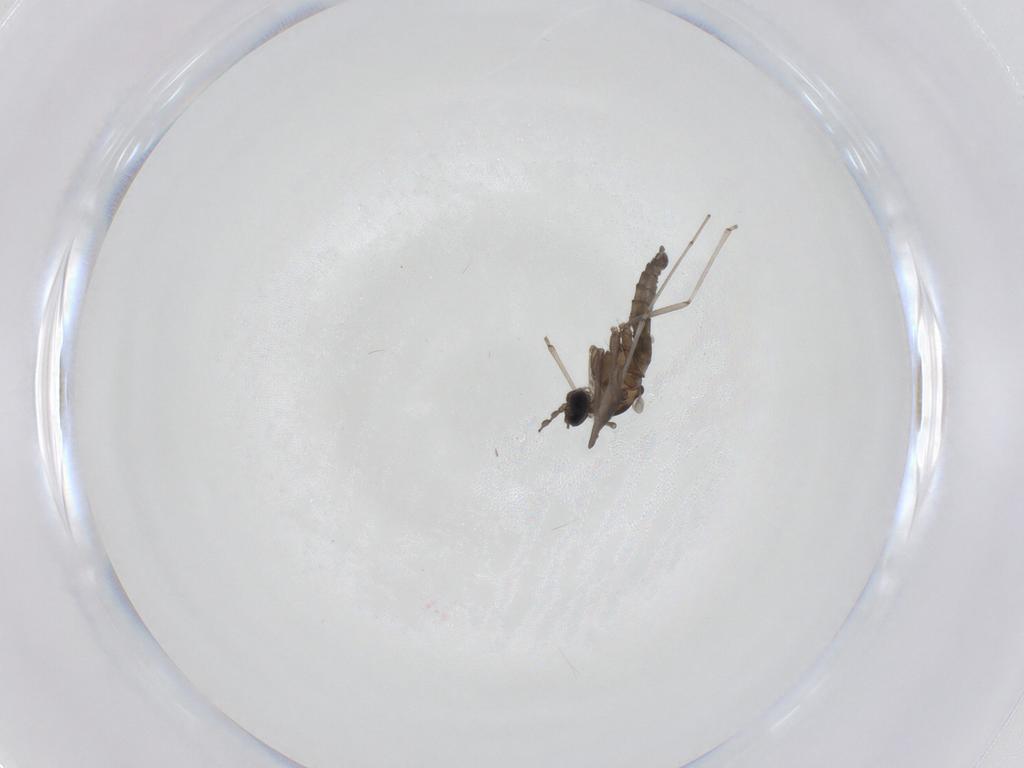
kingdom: Animalia
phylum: Arthropoda
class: Insecta
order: Diptera
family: Cecidomyiidae
